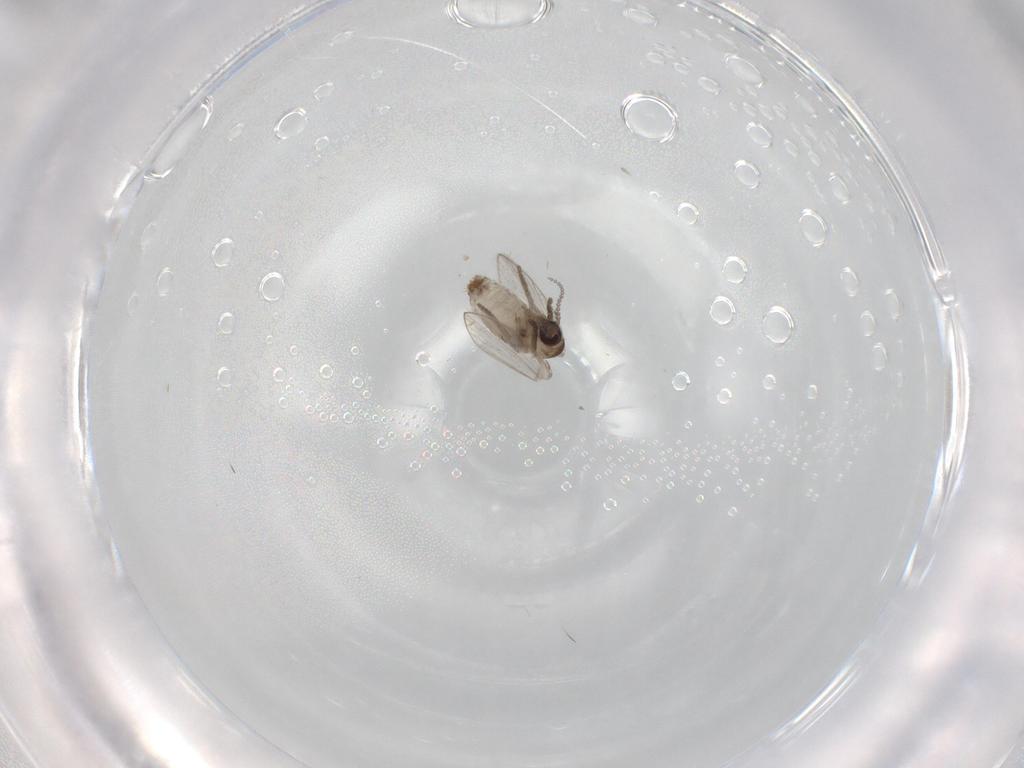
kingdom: Animalia
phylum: Arthropoda
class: Insecta
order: Diptera
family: Psychodidae
